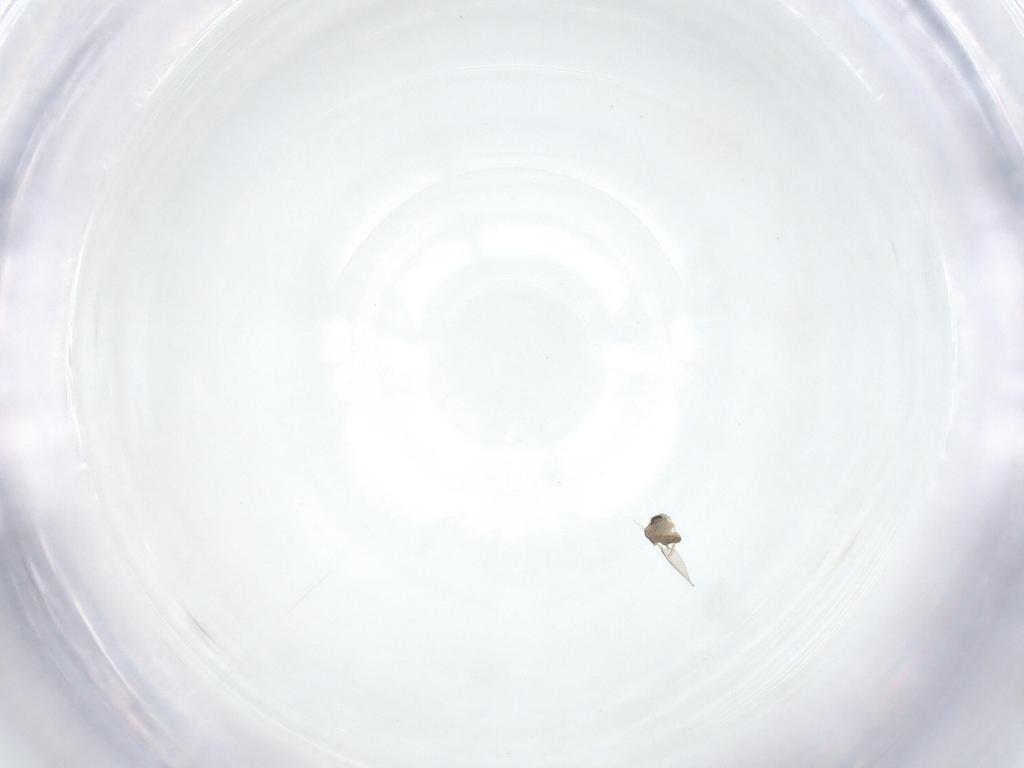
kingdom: Animalia
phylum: Arthropoda
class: Insecta
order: Diptera
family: Cecidomyiidae
